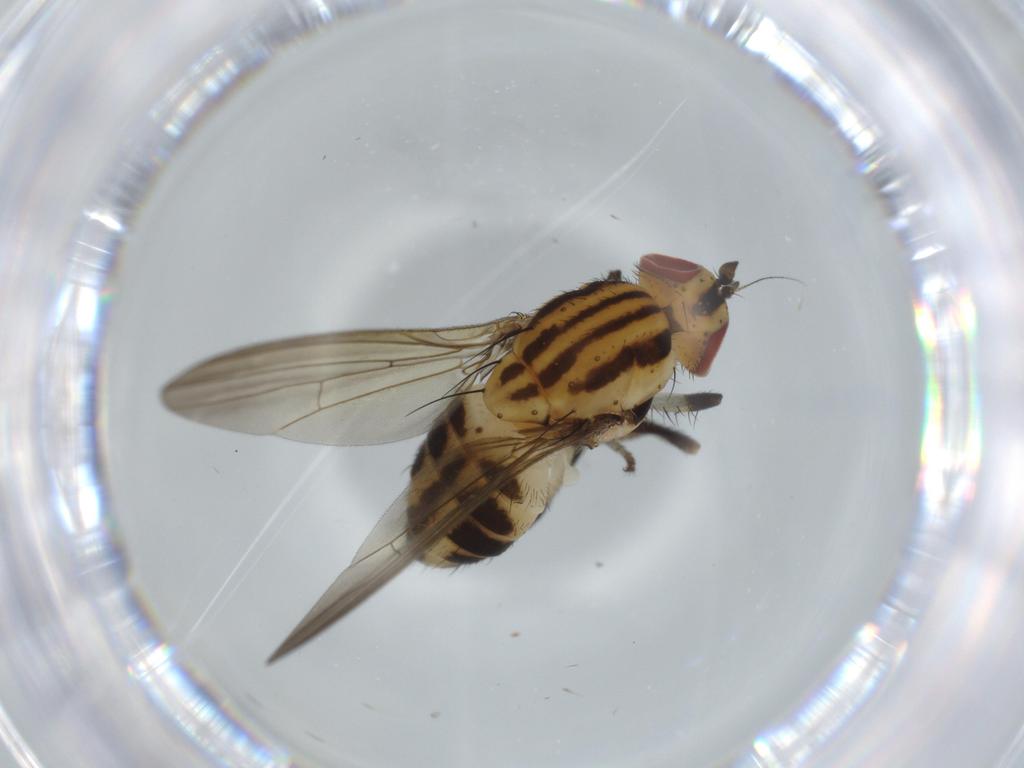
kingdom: Animalia
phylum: Arthropoda
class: Insecta
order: Diptera
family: Lauxaniidae
